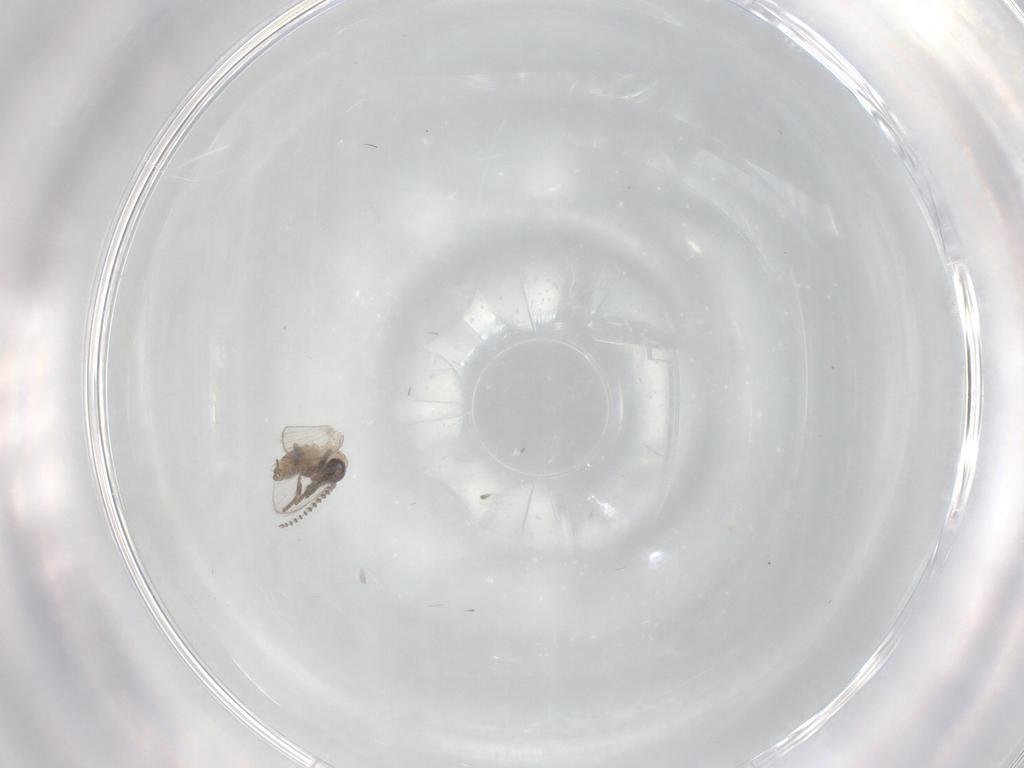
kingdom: Animalia
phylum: Arthropoda
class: Insecta
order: Diptera
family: Psychodidae
